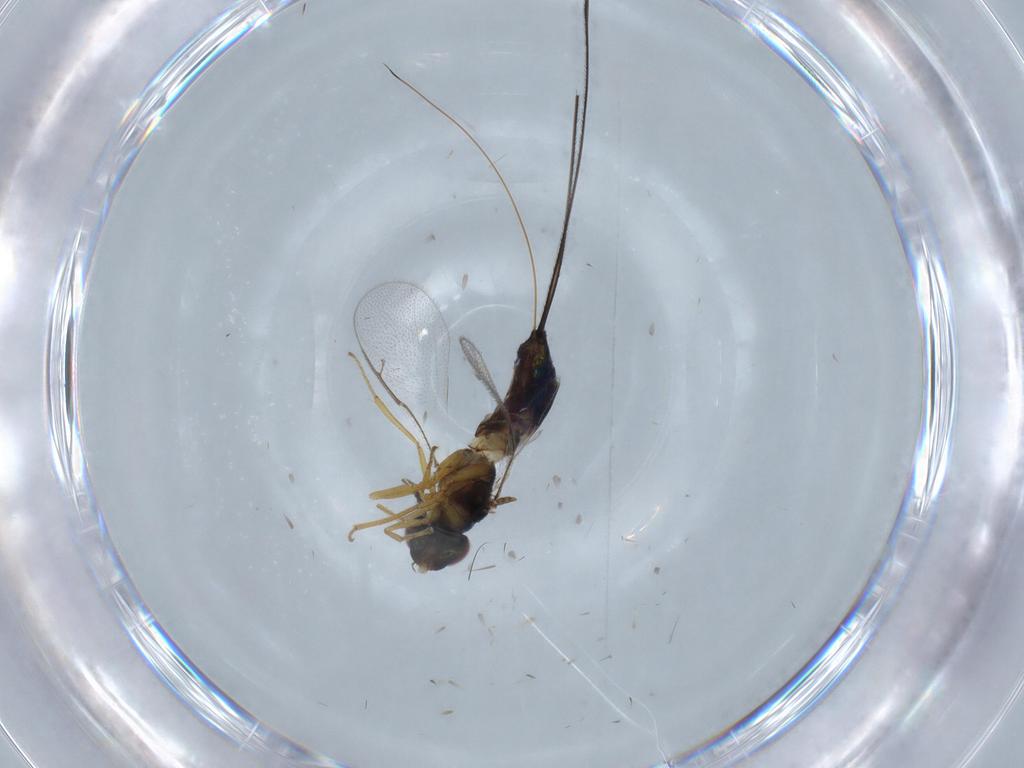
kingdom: Animalia
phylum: Arthropoda
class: Insecta
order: Hymenoptera
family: Pteromalidae
